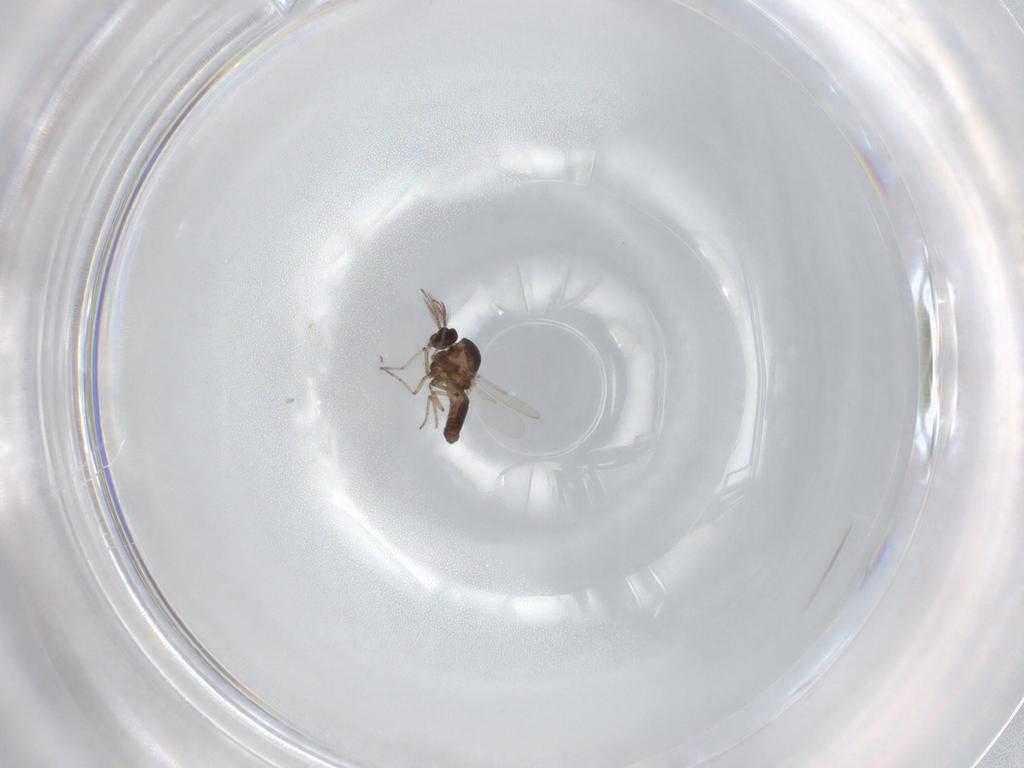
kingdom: Animalia
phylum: Arthropoda
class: Insecta
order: Diptera
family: Ceratopogonidae
